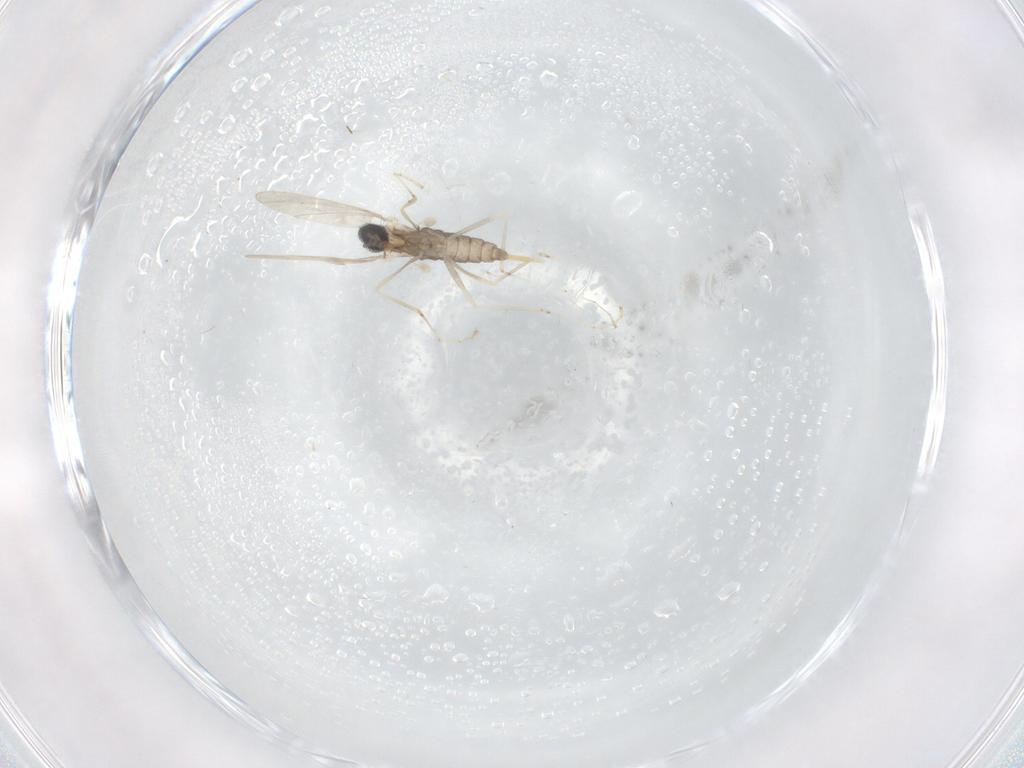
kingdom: Animalia
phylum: Arthropoda
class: Insecta
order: Diptera
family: Cecidomyiidae
